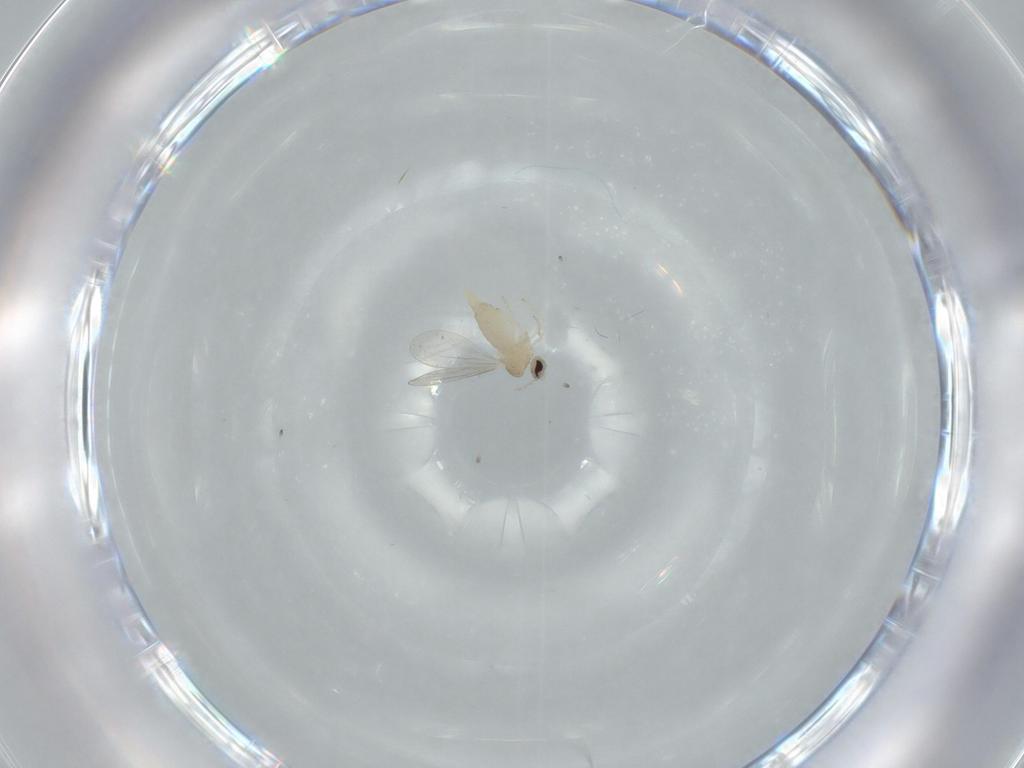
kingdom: Animalia
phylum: Arthropoda
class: Insecta
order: Diptera
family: Cecidomyiidae
